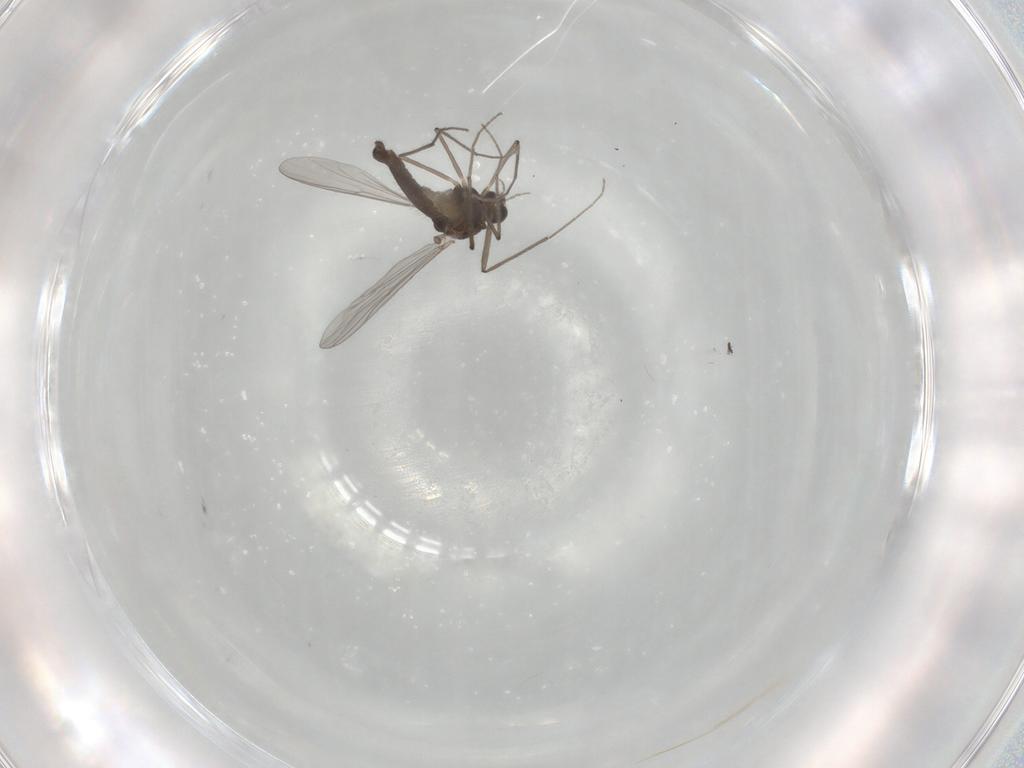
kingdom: Animalia
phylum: Arthropoda
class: Insecta
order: Diptera
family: Chironomidae
